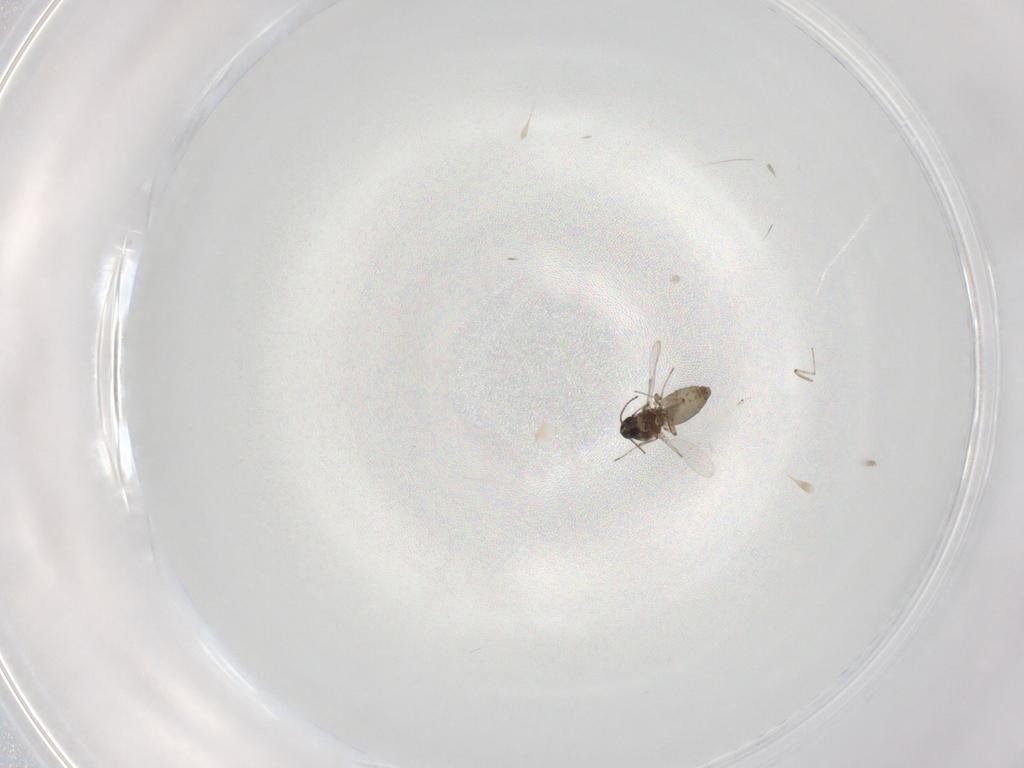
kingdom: Animalia
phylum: Arthropoda
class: Insecta
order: Diptera
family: Ceratopogonidae
